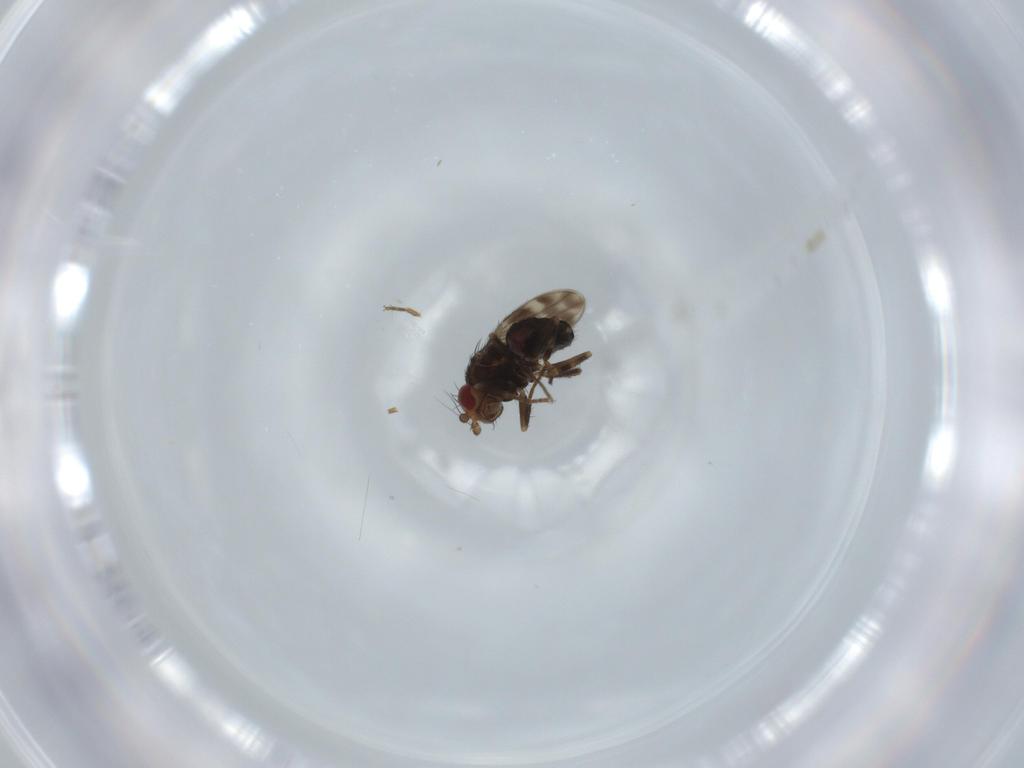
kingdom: Animalia
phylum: Arthropoda
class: Insecta
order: Diptera
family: Sphaeroceridae
